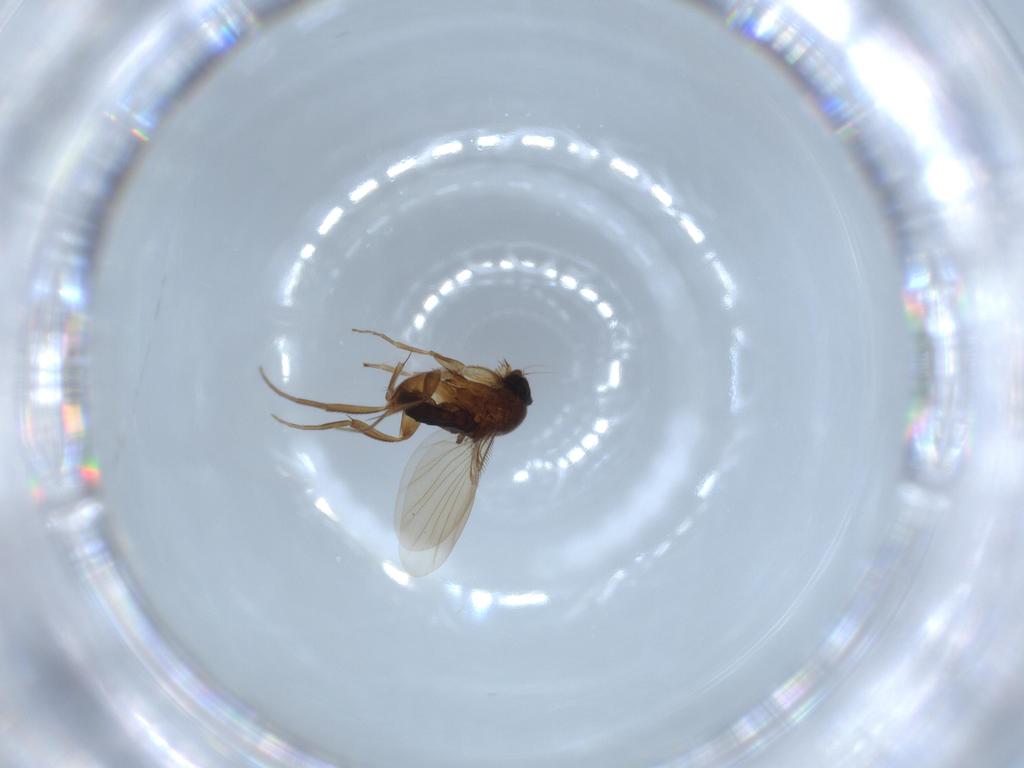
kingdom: Animalia
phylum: Arthropoda
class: Insecta
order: Diptera
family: Phoridae
